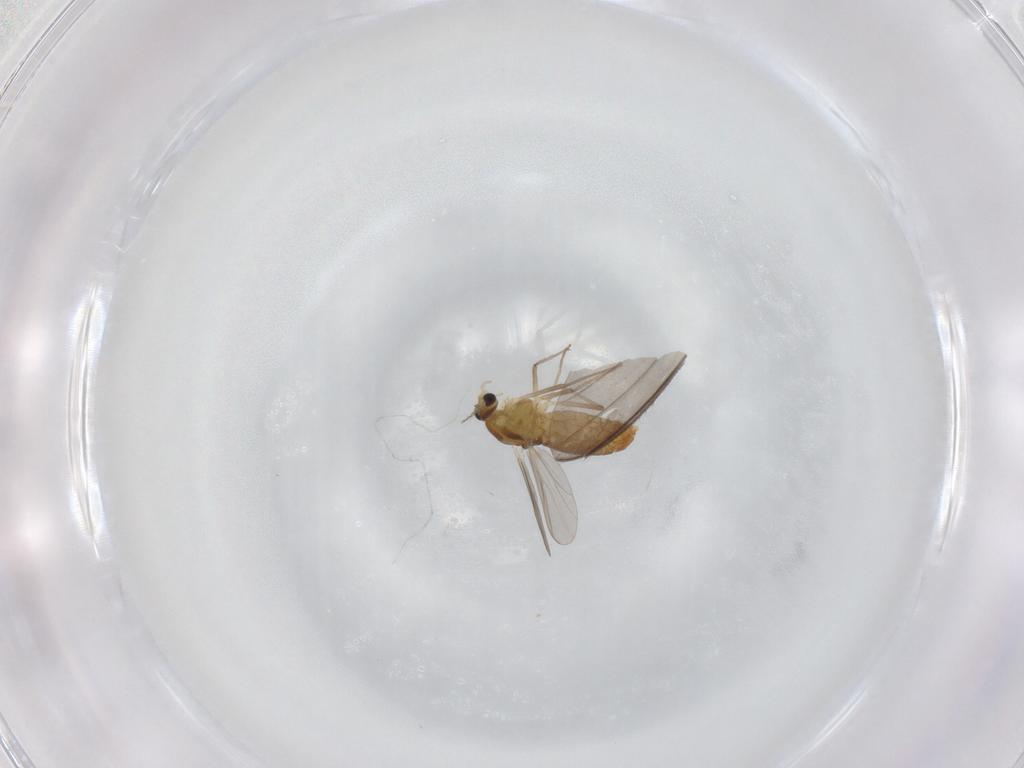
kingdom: Animalia
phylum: Arthropoda
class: Insecta
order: Diptera
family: Chironomidae
